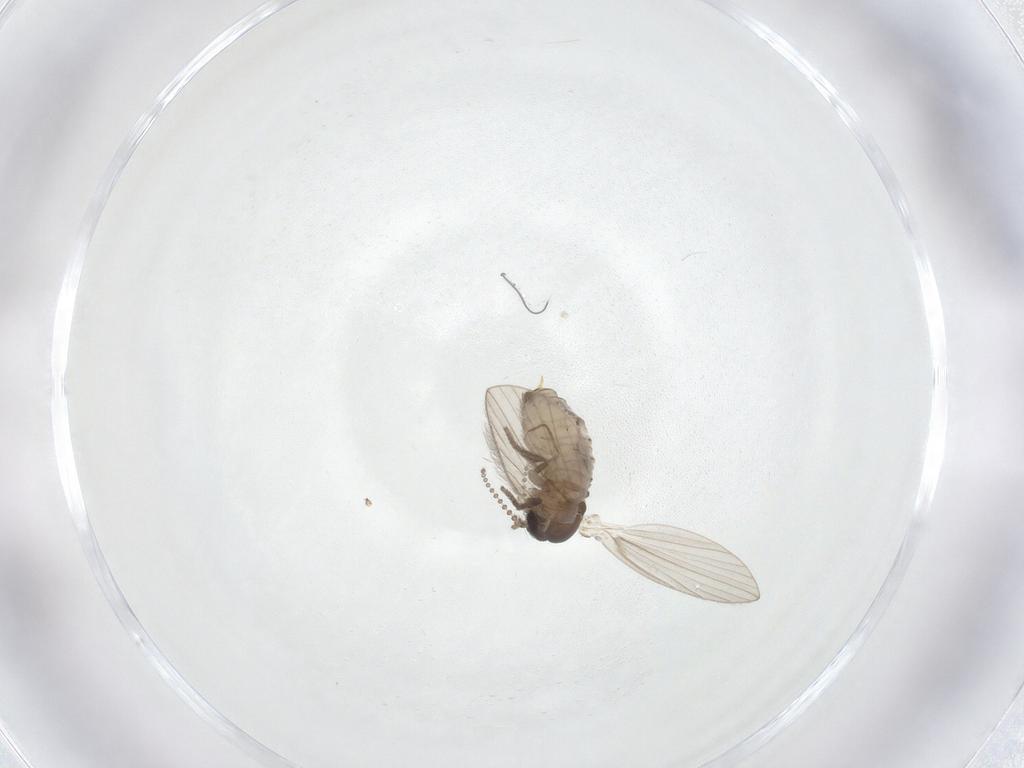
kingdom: Animalia
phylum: Arthropoda
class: Insecta
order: Diptera
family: Psychodidae
